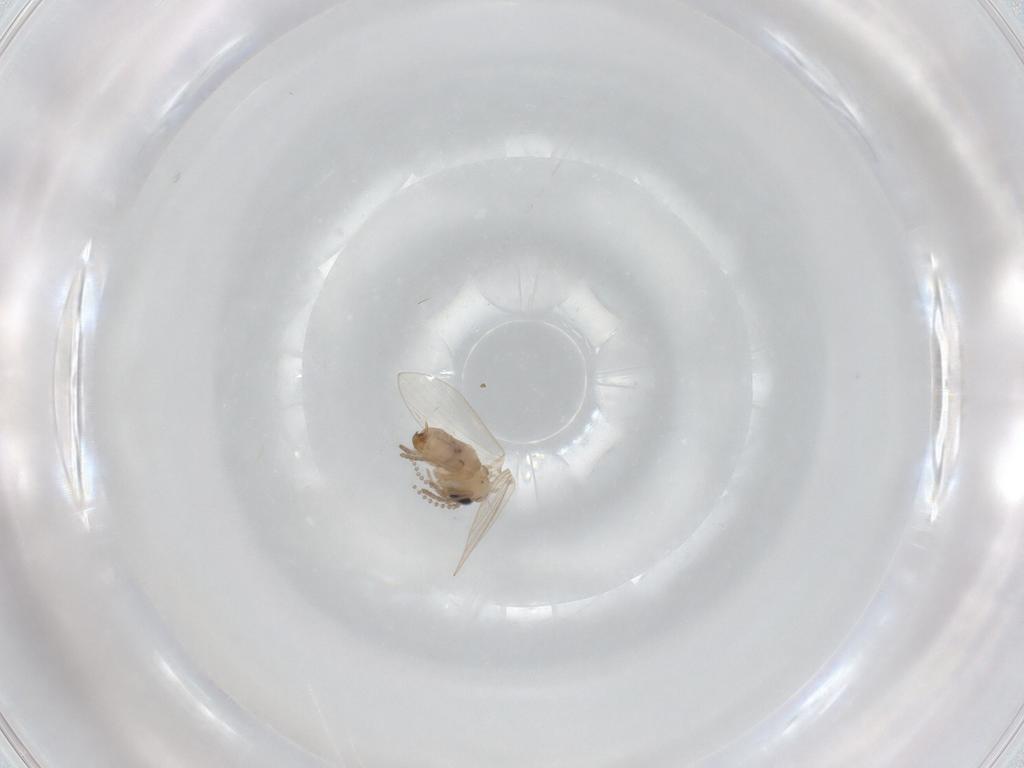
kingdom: Animalia
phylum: Arthropoda
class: Insecta
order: Diptera
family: Psychodidae
